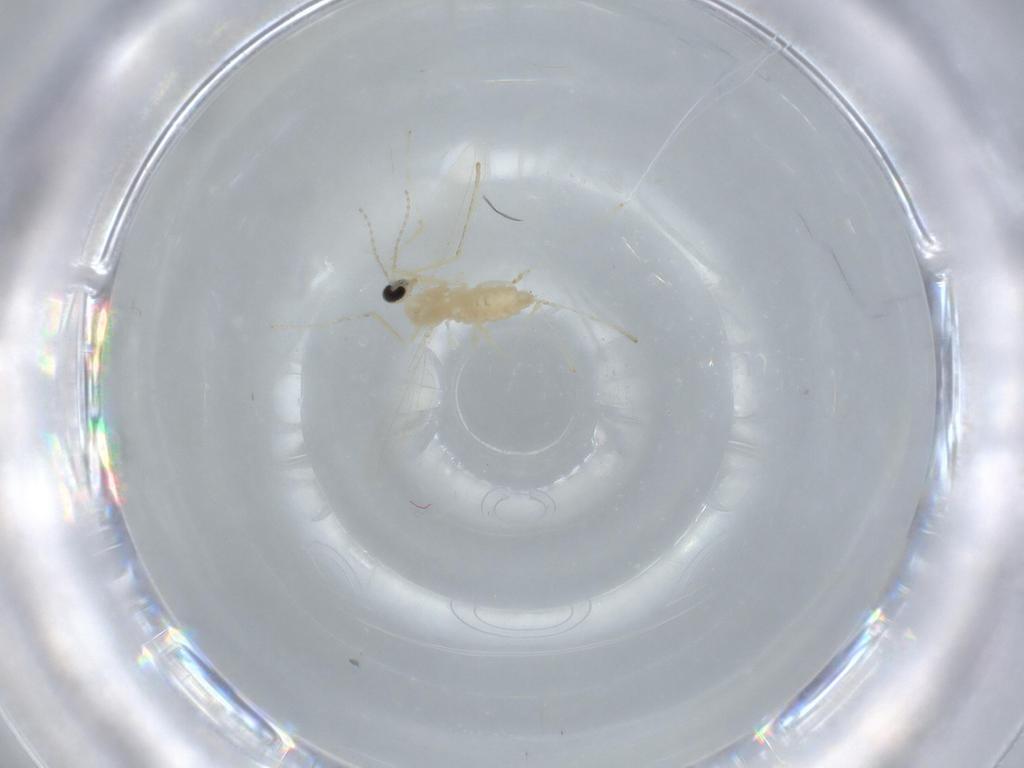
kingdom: Animalia
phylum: Arthropoda
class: Insecta
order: Diptera
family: Cecidomyiidae
